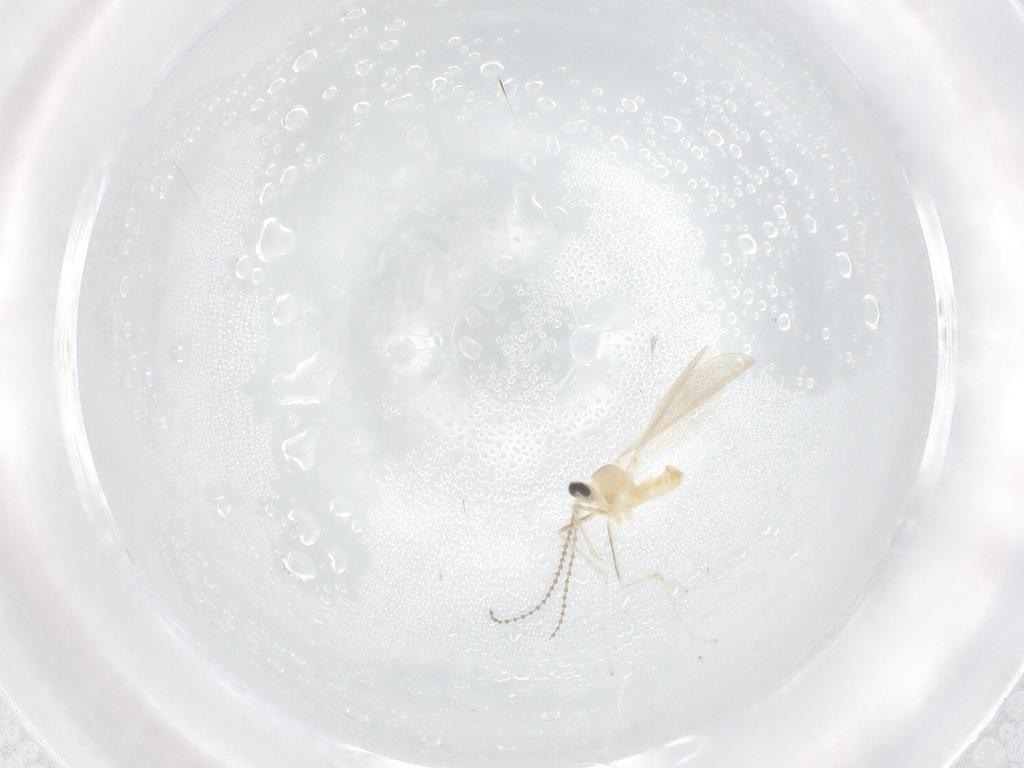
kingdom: Animalia
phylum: Arthropoda
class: Insecta
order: Diptera
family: Cecidomyiidae
